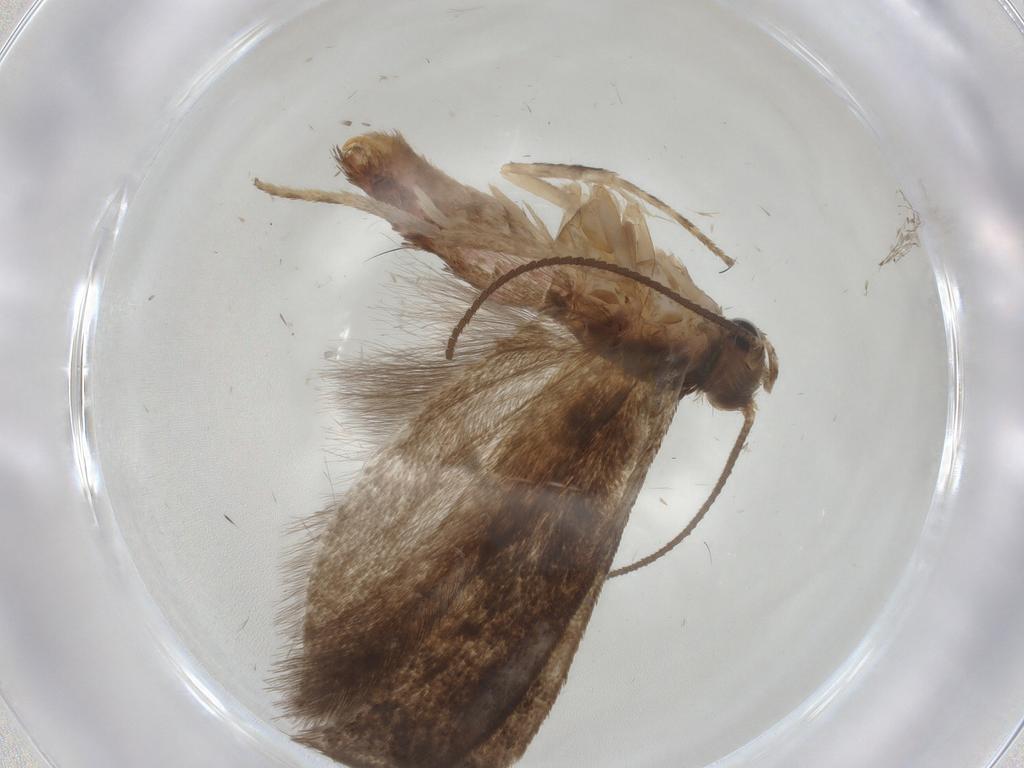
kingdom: Animalia
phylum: Arthropoda
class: Insecta
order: Lepidoptera
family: Praydidae
